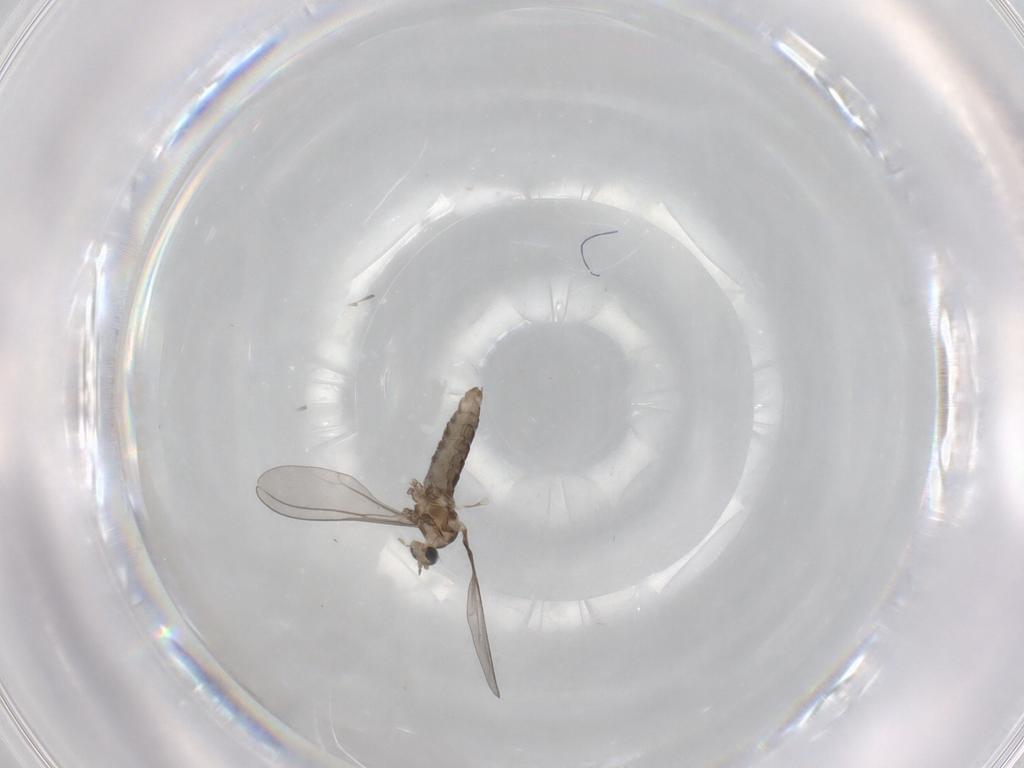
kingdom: Animalia
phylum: Arthropoda
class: Insecta
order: Diptera
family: Cecidomyiidae
